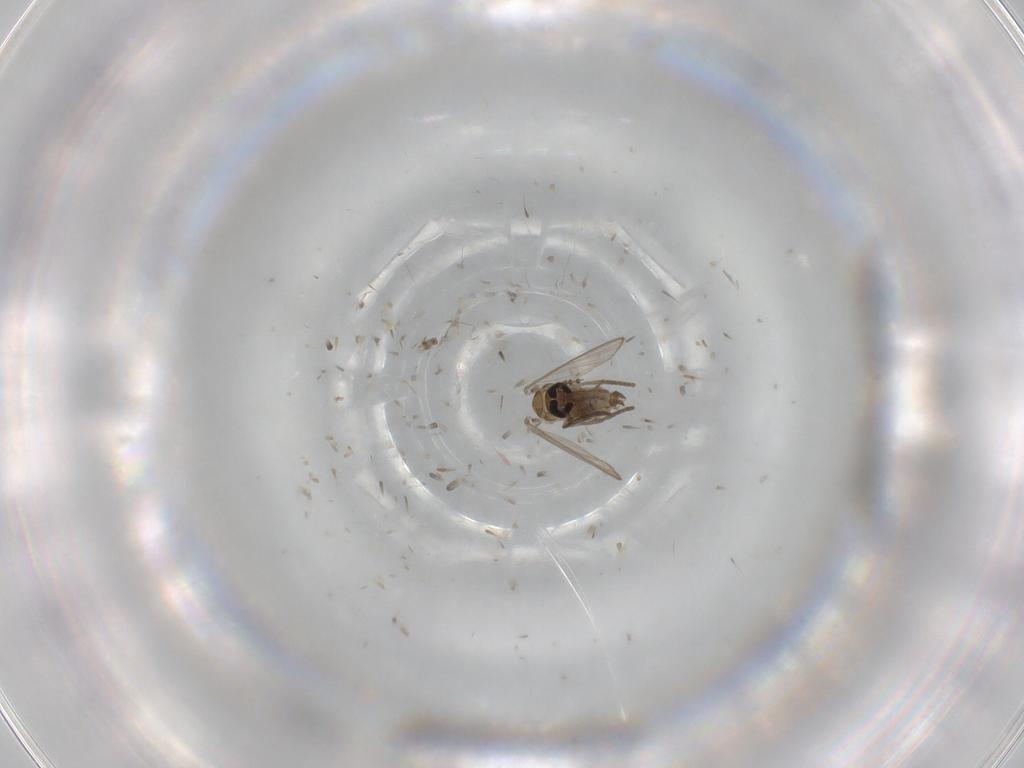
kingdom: Animalia
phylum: Arthropoda
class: Insecta
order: Diptera
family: Psychodidae
